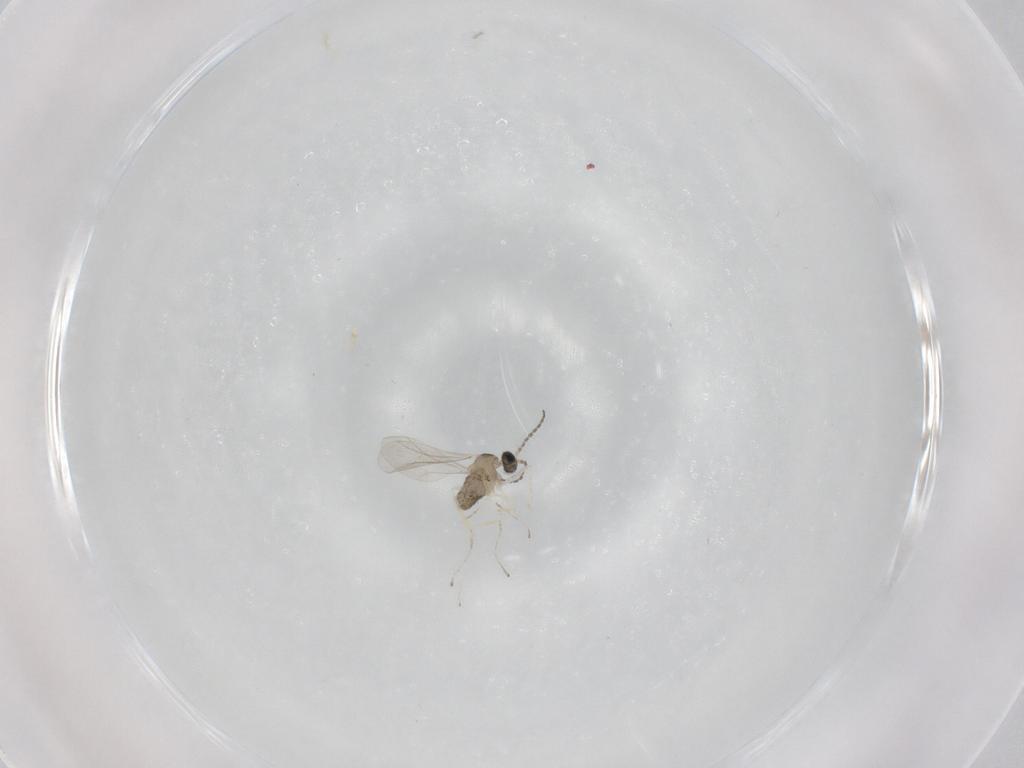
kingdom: Animalia
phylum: Arthropoda
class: Insecta
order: Diptera
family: Cecidomyiidae
